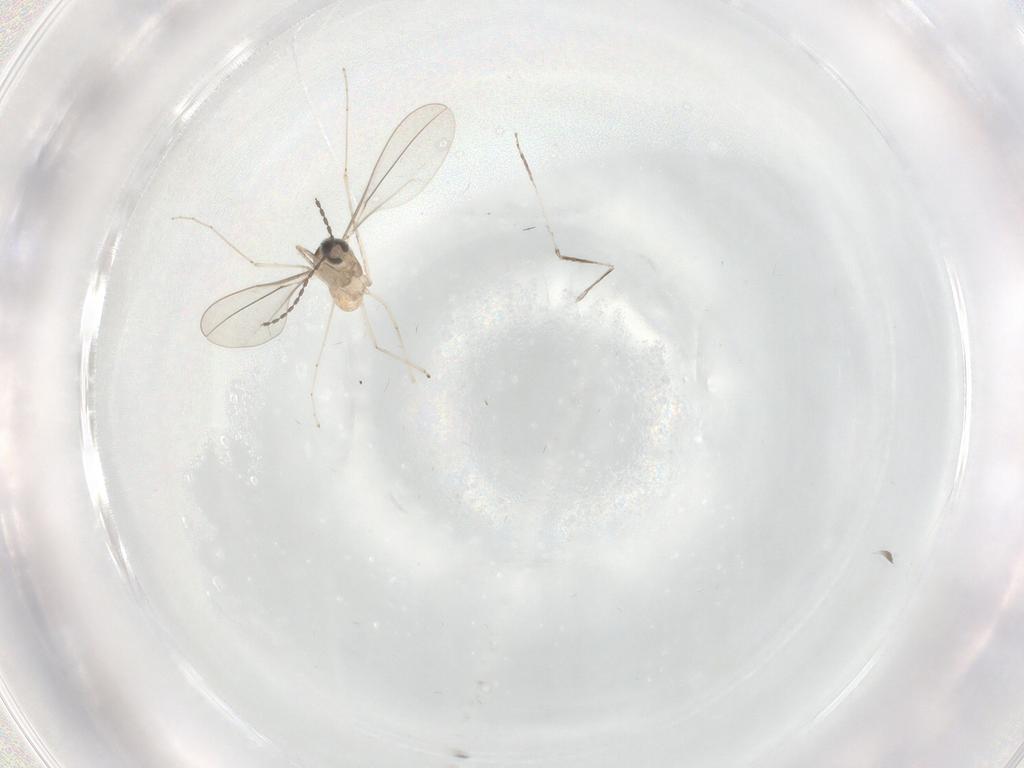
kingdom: Animalia
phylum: Arthropoda
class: Insecta
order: Diptera
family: Cecidomyiidae
